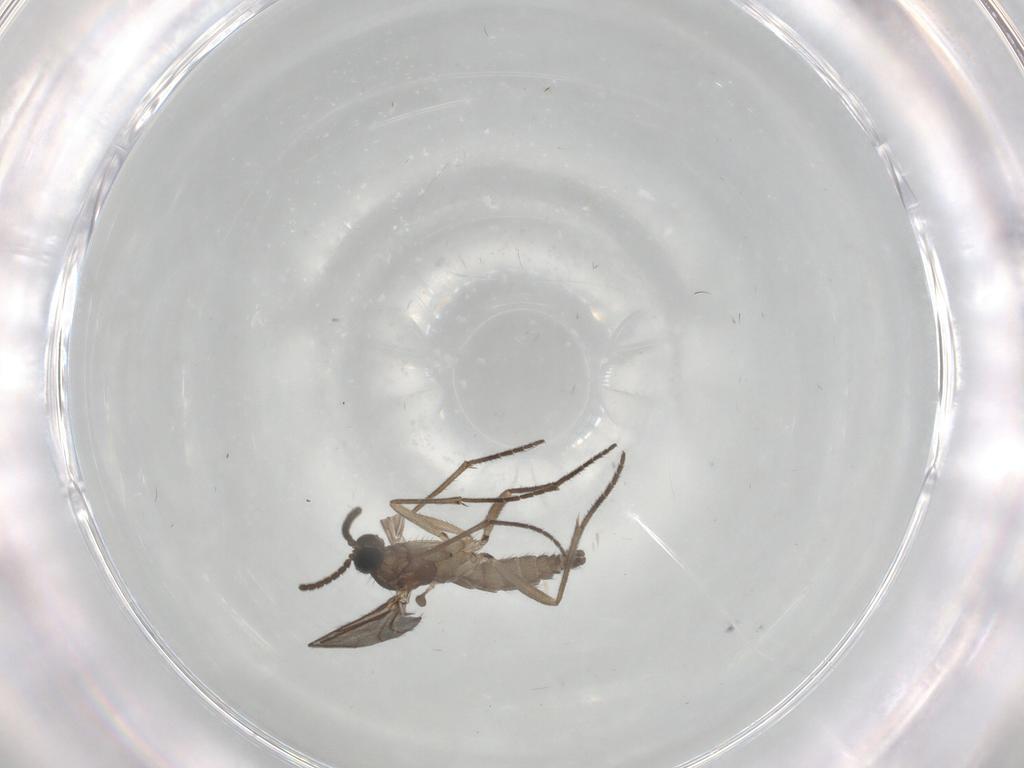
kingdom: Animalia
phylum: Arthropoda
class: Insecta
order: Diptera
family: Sciaridae
